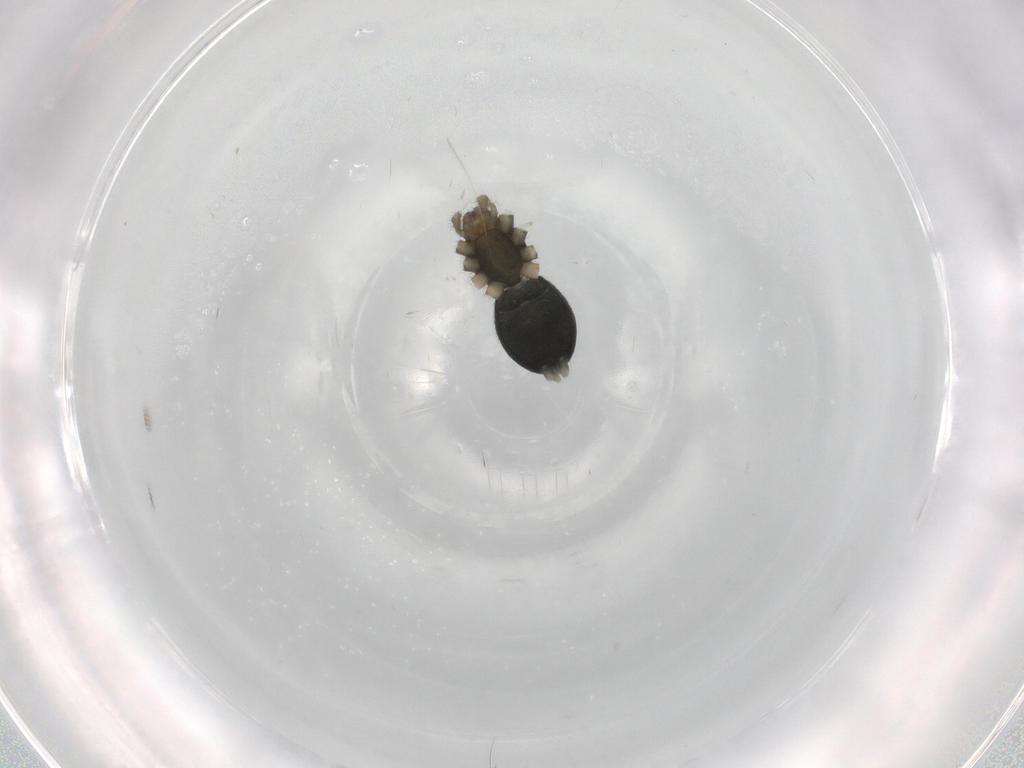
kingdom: Animalia
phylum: Arthropoda
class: Arachnida
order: Araneae
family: Gnaphosidae
